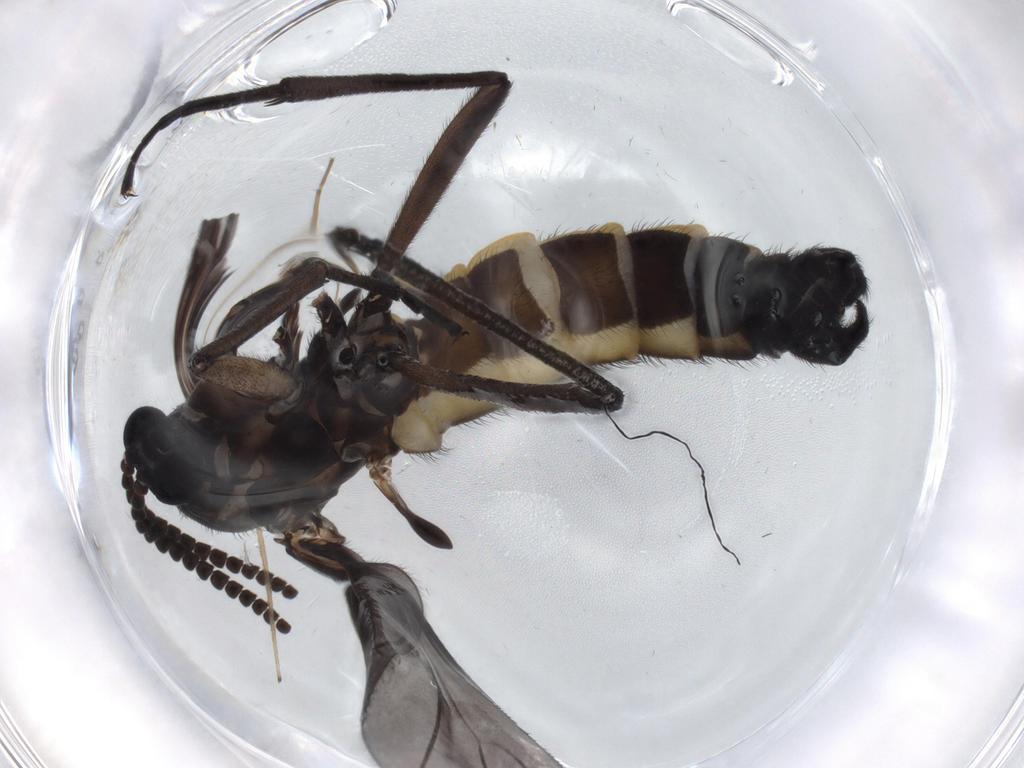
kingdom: Animalia
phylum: Arthropoda
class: Insecta
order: Diptera
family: Sciaridae
